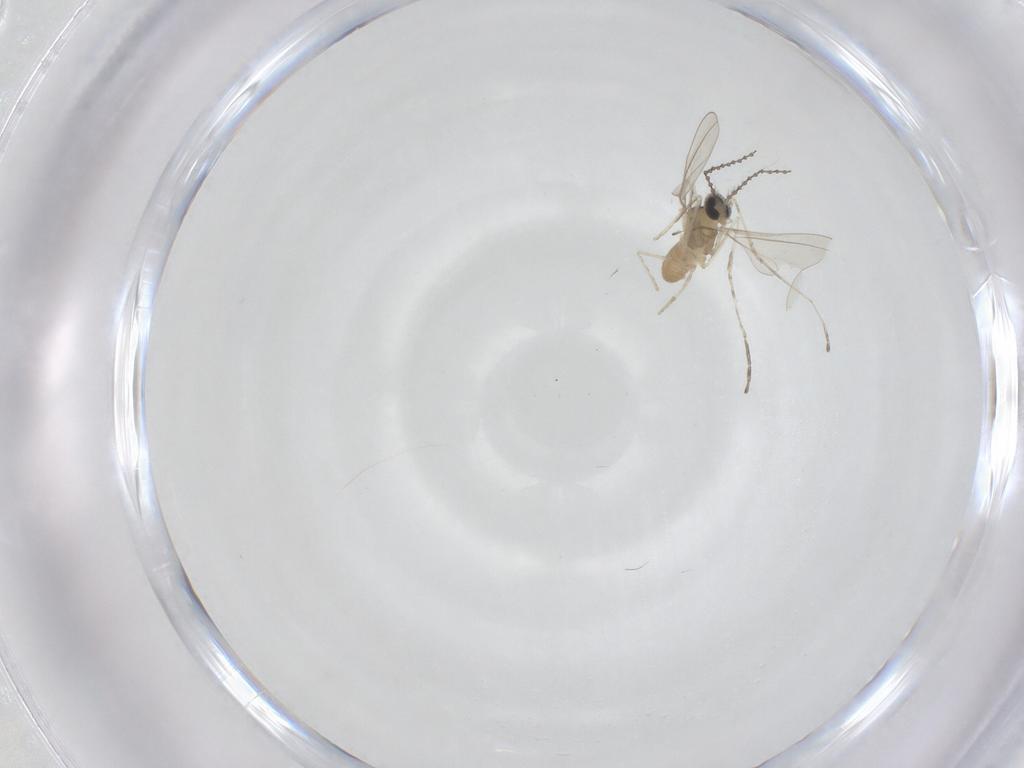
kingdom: Animalia
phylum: Arthropoda
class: Insecta
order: Diptera
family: Cecidomyiidae
